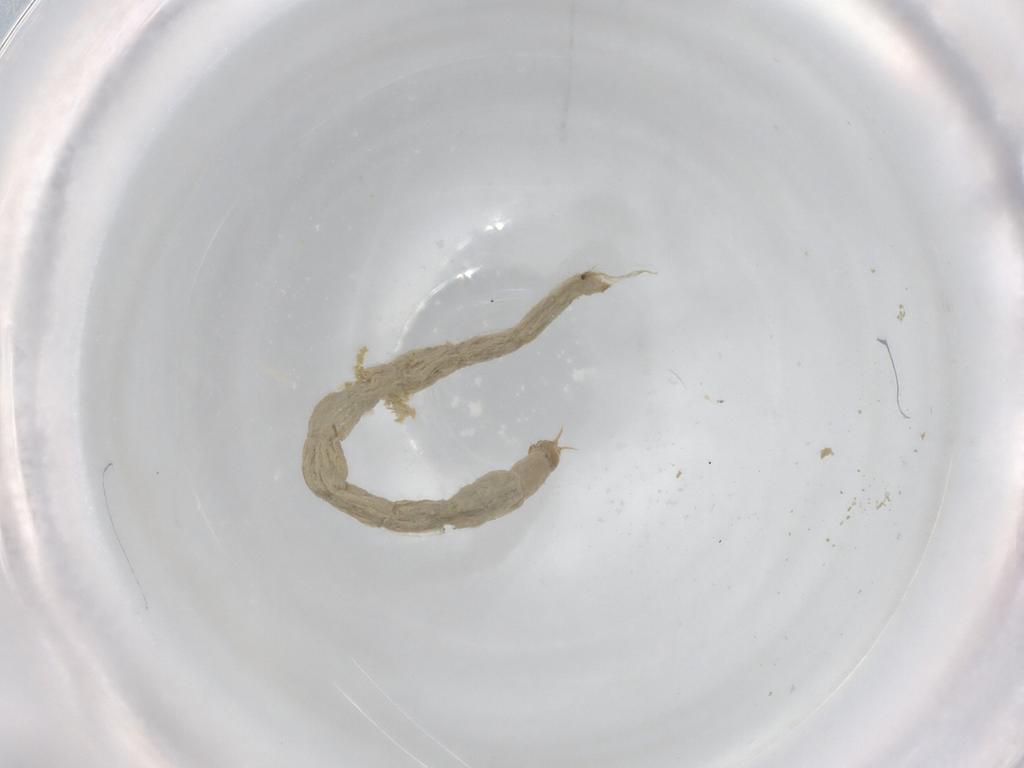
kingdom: Animalia
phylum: Arthropoda
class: Insecta
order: Diptera
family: Chironomidae
